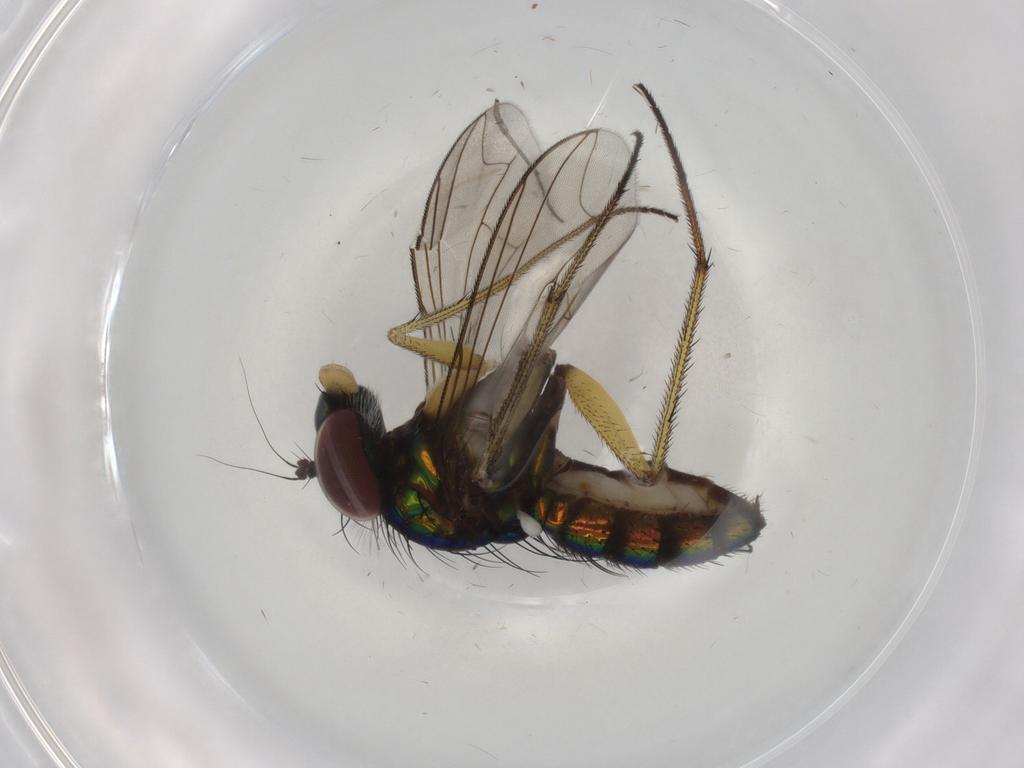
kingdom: Animalia
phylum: Arthropoda
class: Insecta
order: Diptera
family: Dolichopodidae
